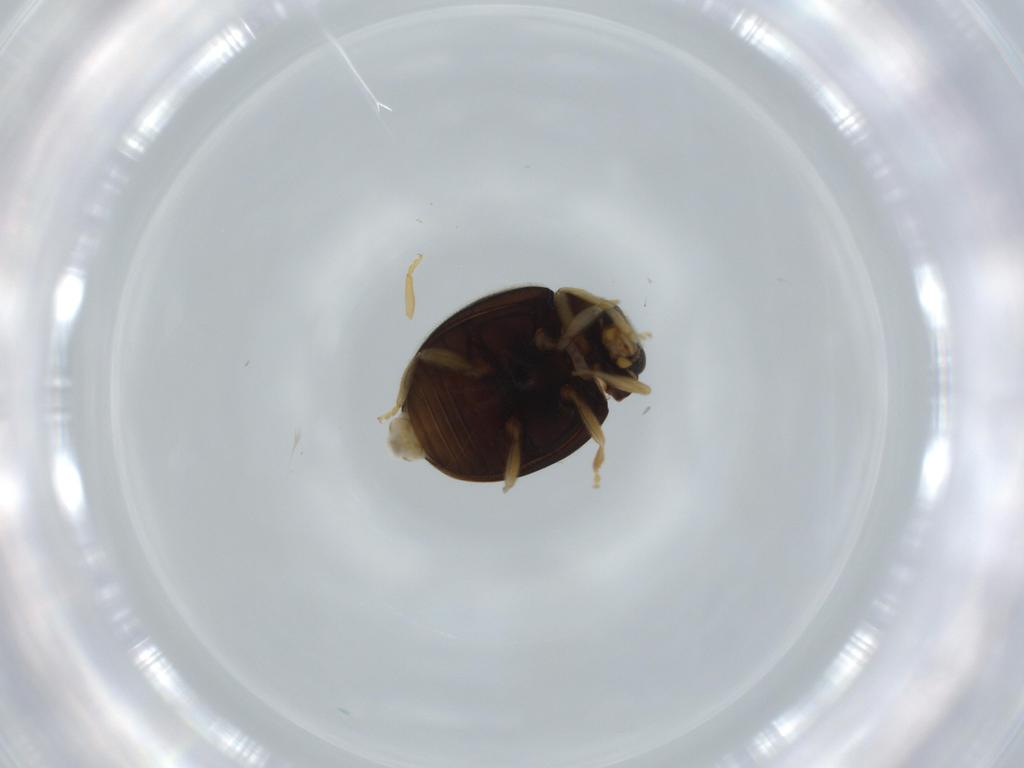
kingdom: Animalia
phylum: Arthropoda
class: Insecta
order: Coleoptera
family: Coccinellidae
